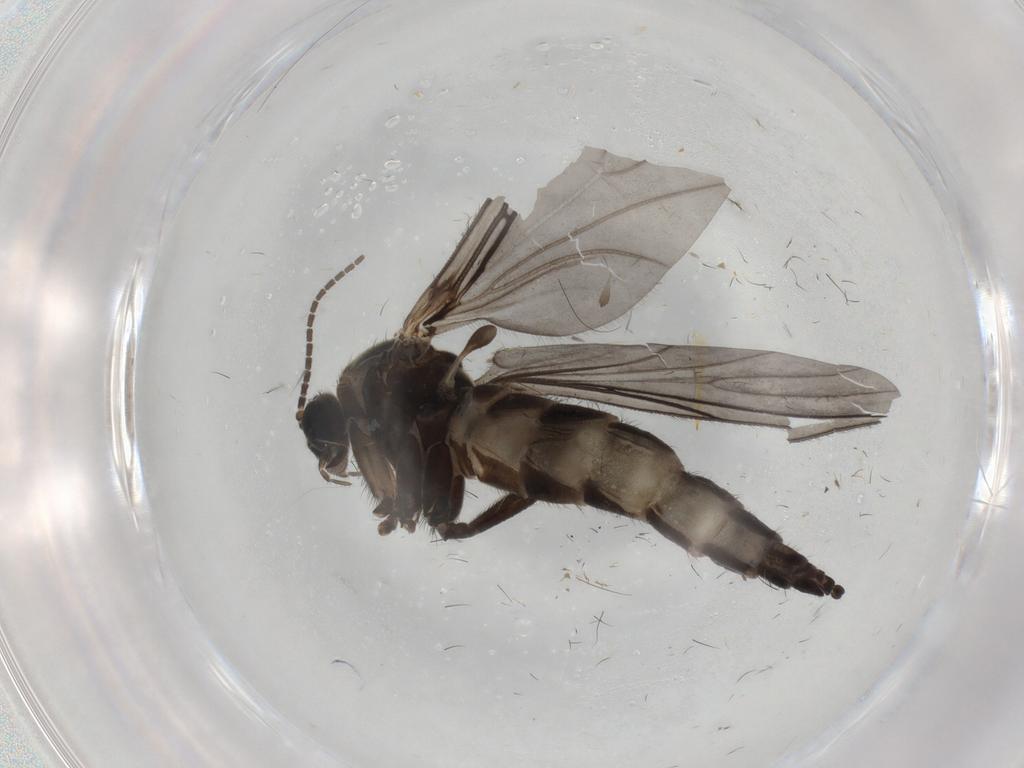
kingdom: Animalia
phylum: Arthropoda
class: Insecta
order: Diptera
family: Sciaridae
